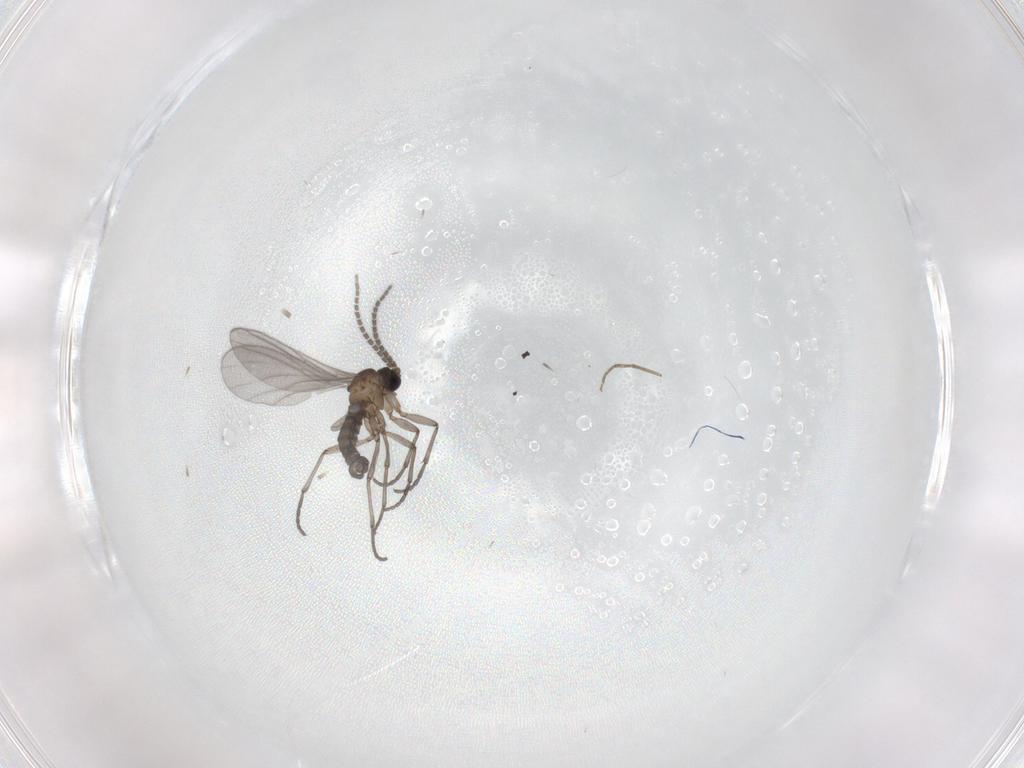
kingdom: Animalia
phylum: Arthropoda
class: Insecta
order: Diptera
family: Sciaridae
